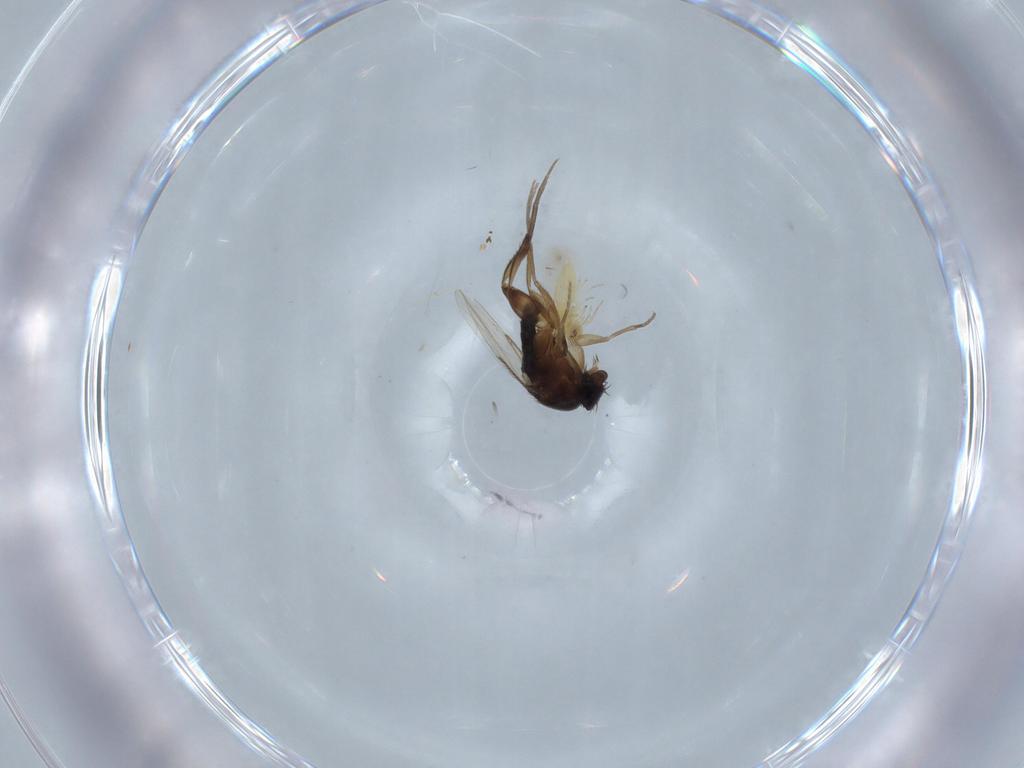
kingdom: Animalia
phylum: Arthropoda
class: Insecta
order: Diptera
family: Phoridae
